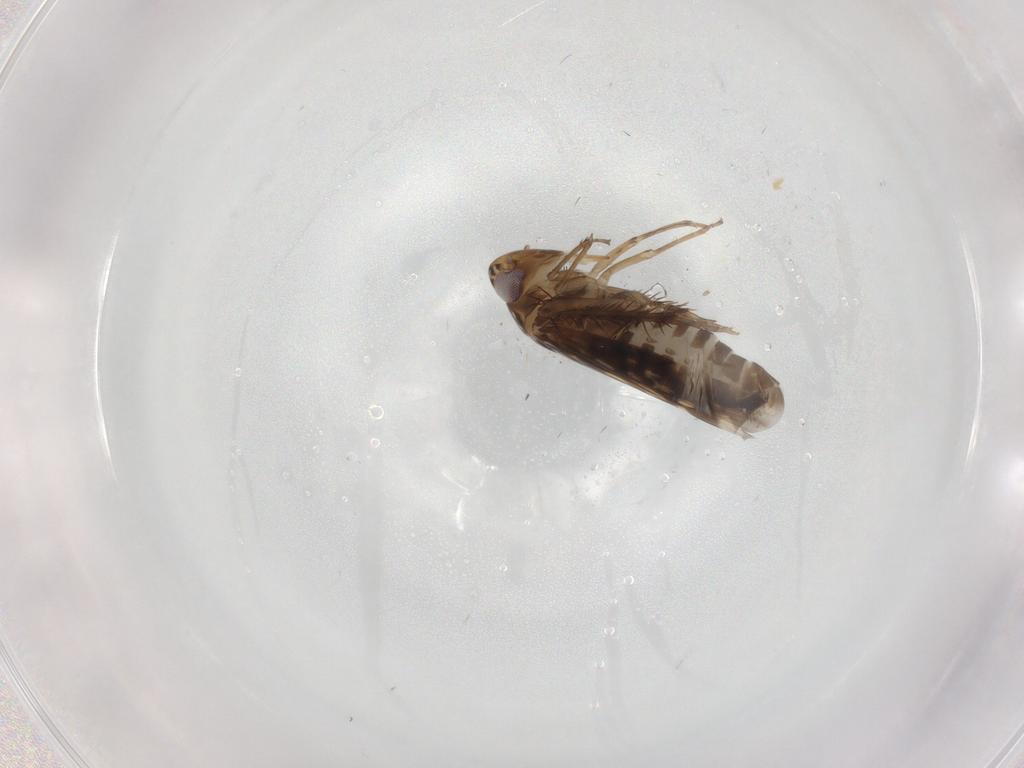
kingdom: Animalia
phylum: Arthropoda
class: Insecta
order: Hemiptera
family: Cicadellidae
